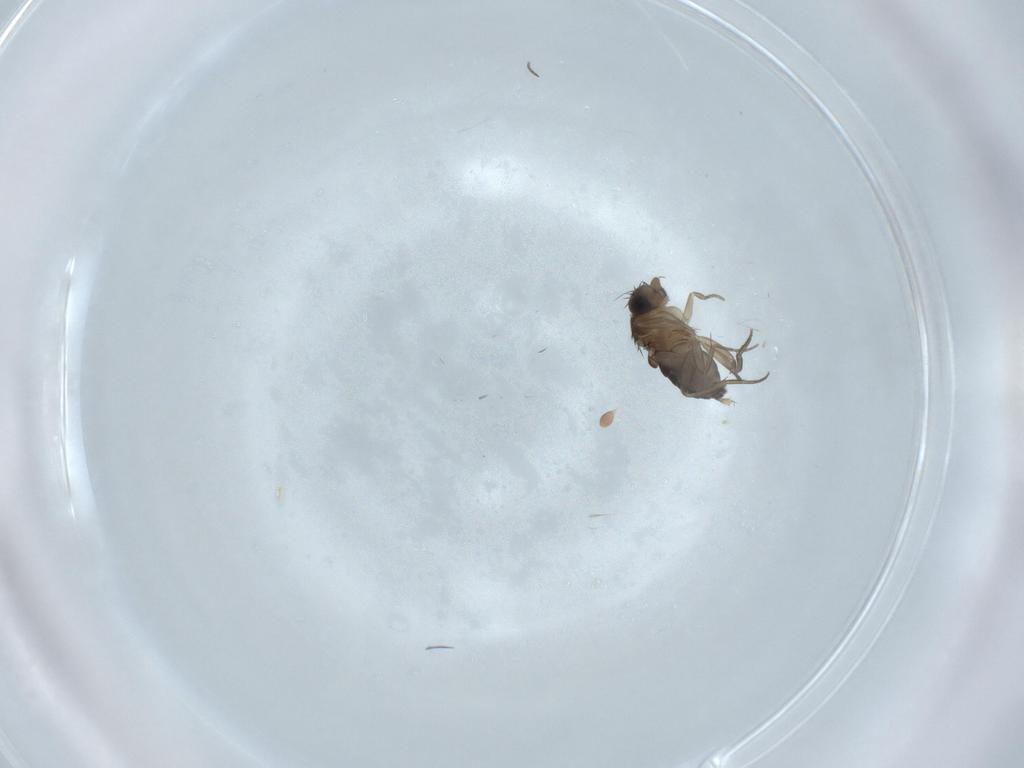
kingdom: Animalia
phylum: Arthropoda
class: Insecta
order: Diptera
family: Phoridae
